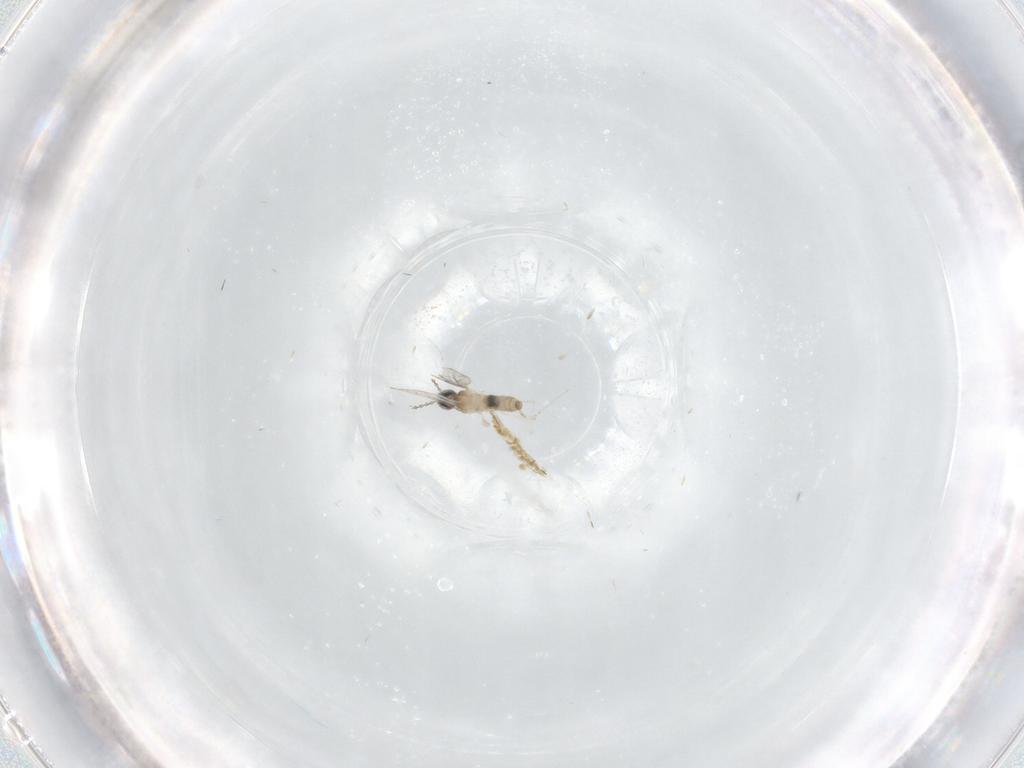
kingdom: Animalia
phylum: Arthropoda
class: Insecta
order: Diptera
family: Cecidomyiidae
